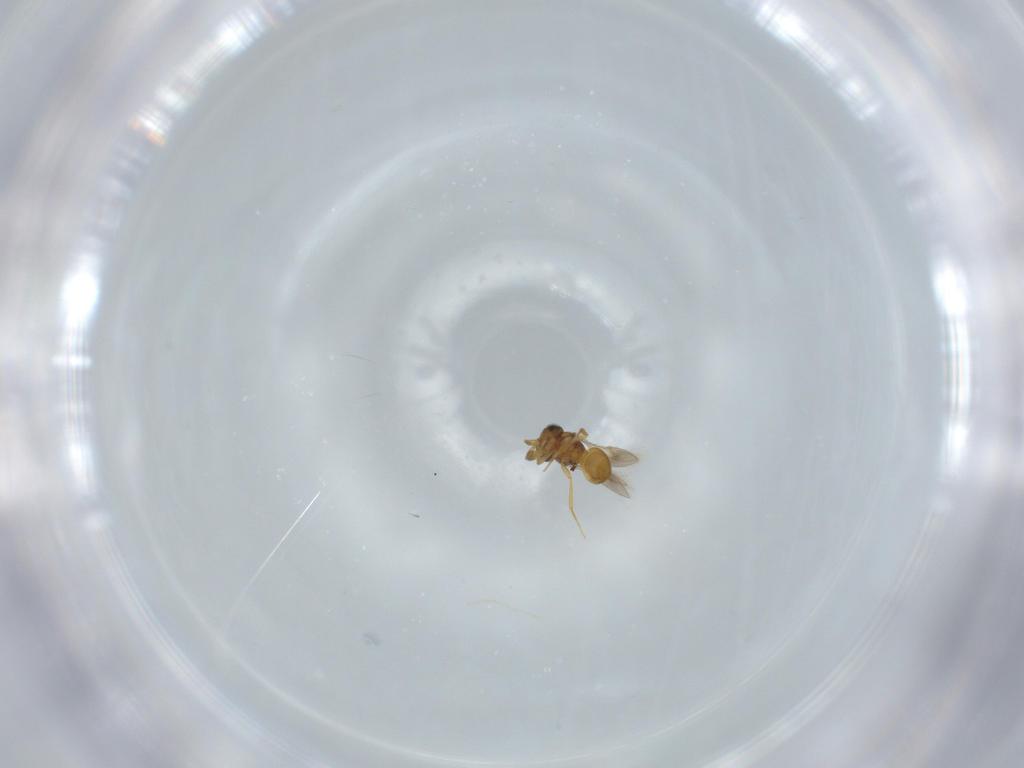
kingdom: Animalia
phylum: Arthropoda
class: Insecta
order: Hymenoptera
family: Scelionidae
